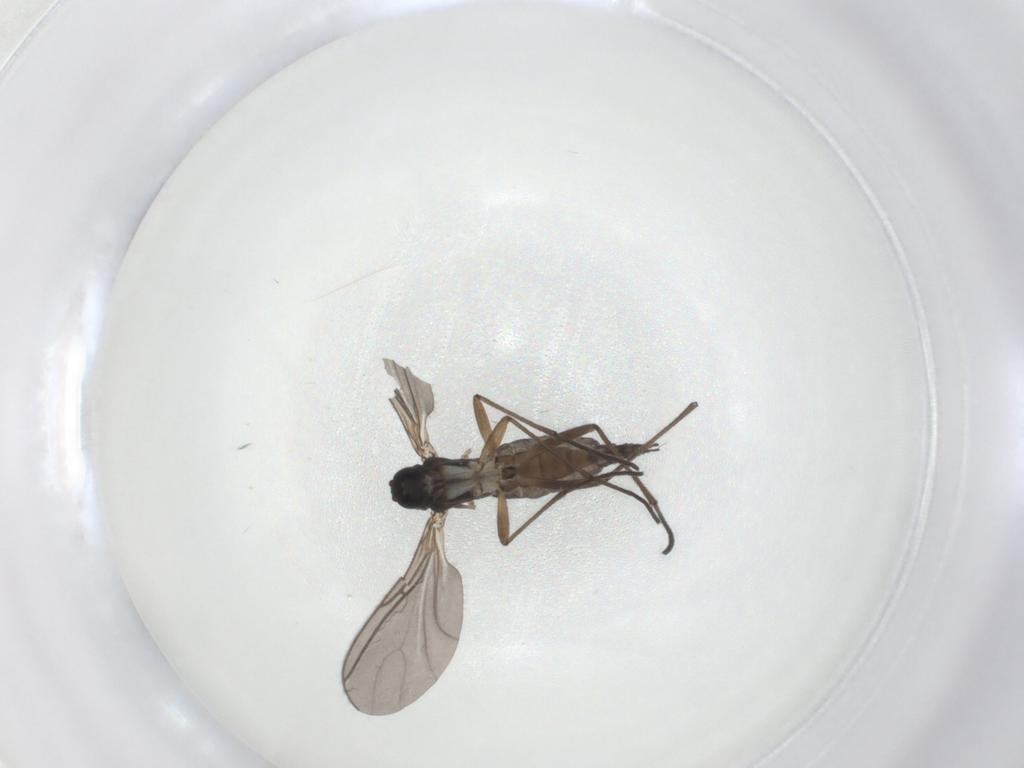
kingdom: Animalia
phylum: Arthropoda
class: Insecta
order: Diptera
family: Sciaridae
